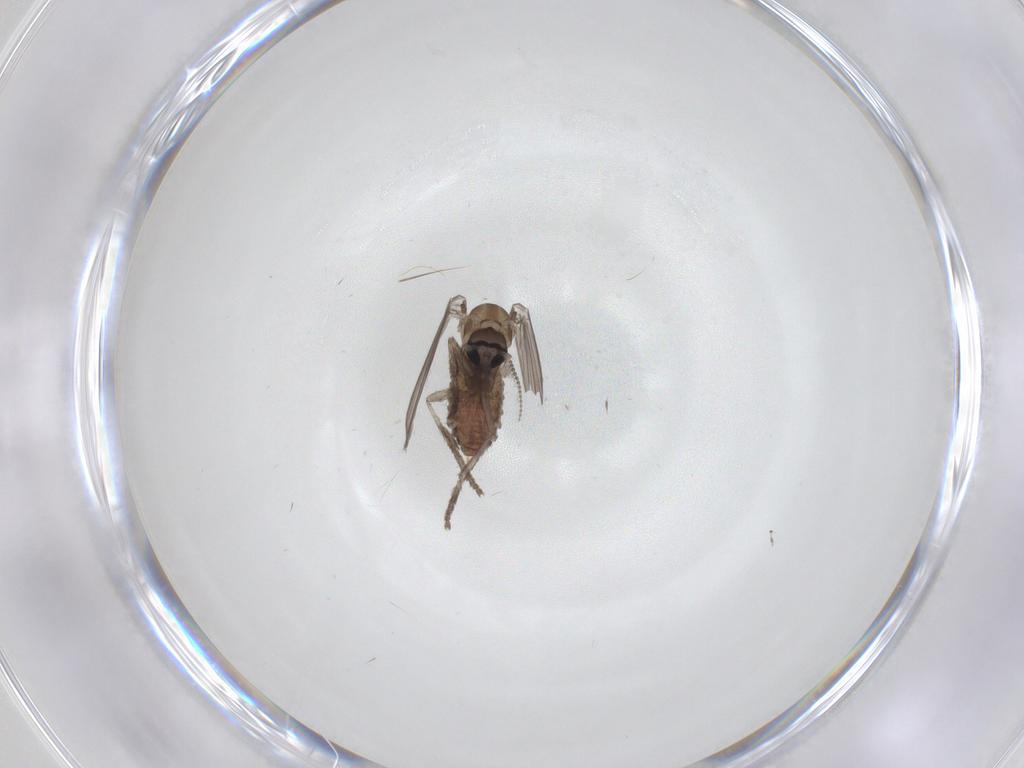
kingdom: Animalia
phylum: Arthropoda
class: Insecta
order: Diptera
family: Psychodidae
